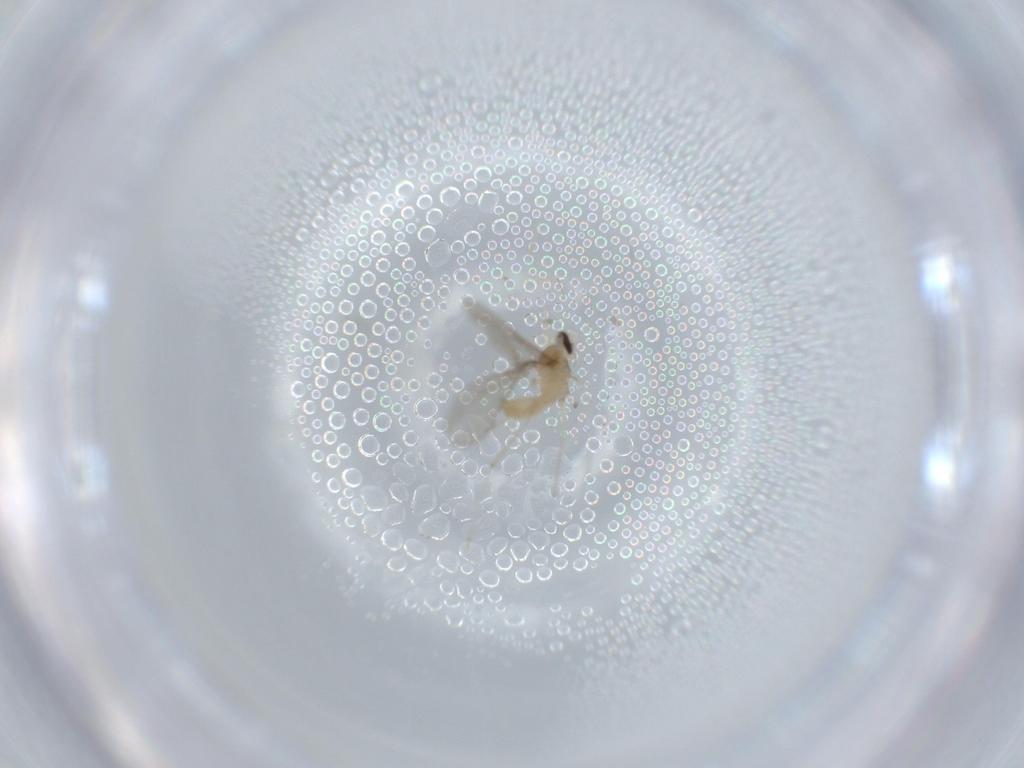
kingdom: Animalia
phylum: Arthropoda
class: Insecta
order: Diptera
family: Cecidomyiidae
